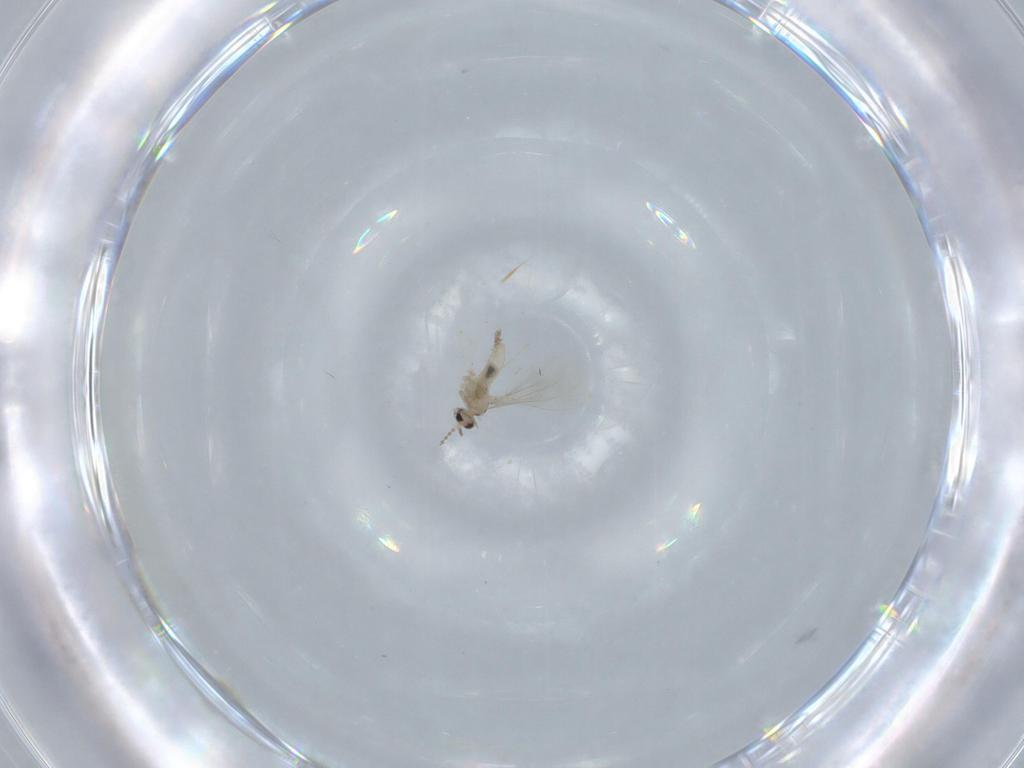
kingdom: Animalia
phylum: Arthropoda
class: Insecta
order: Diptera
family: Cecidomyiidae
